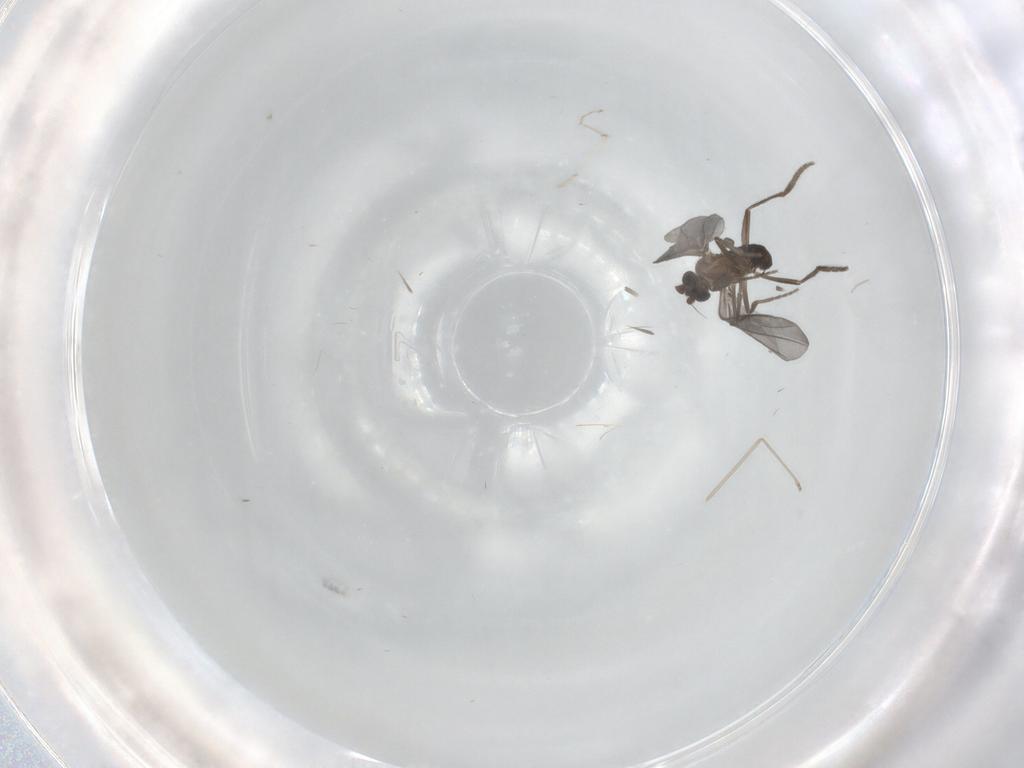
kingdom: Animalia
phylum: Arthropoda
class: Insecta
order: Diptera
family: Phoridae
